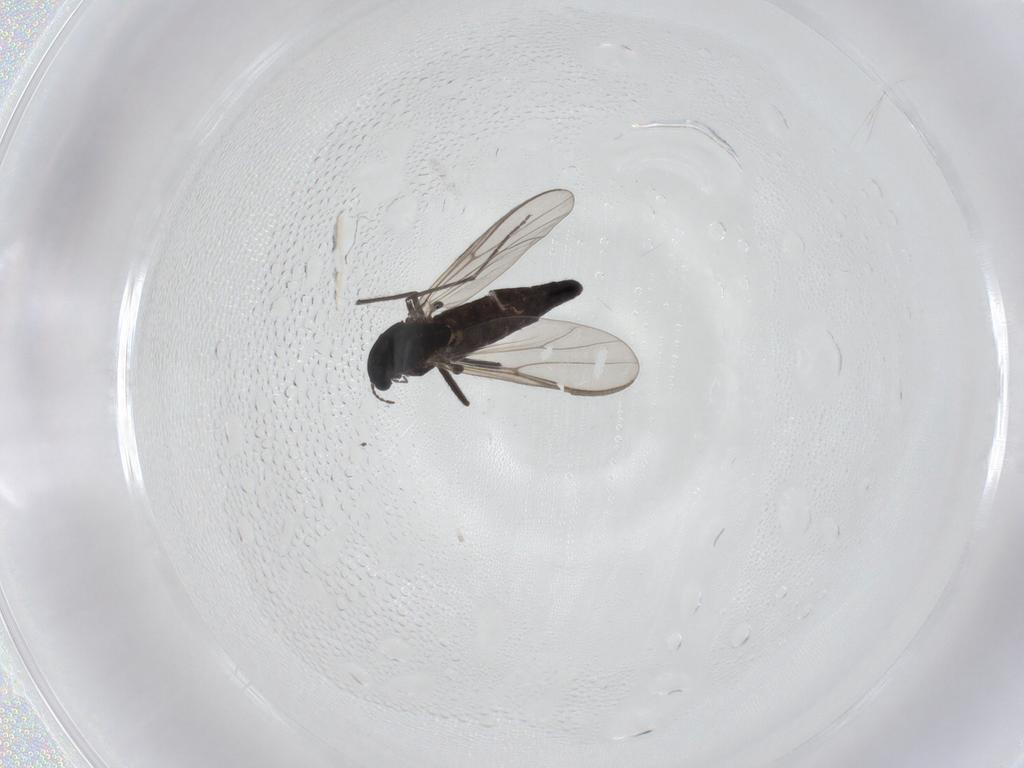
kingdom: Animalia
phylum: Arthropoda
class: Insecta
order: Diptera
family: Chironomidae
